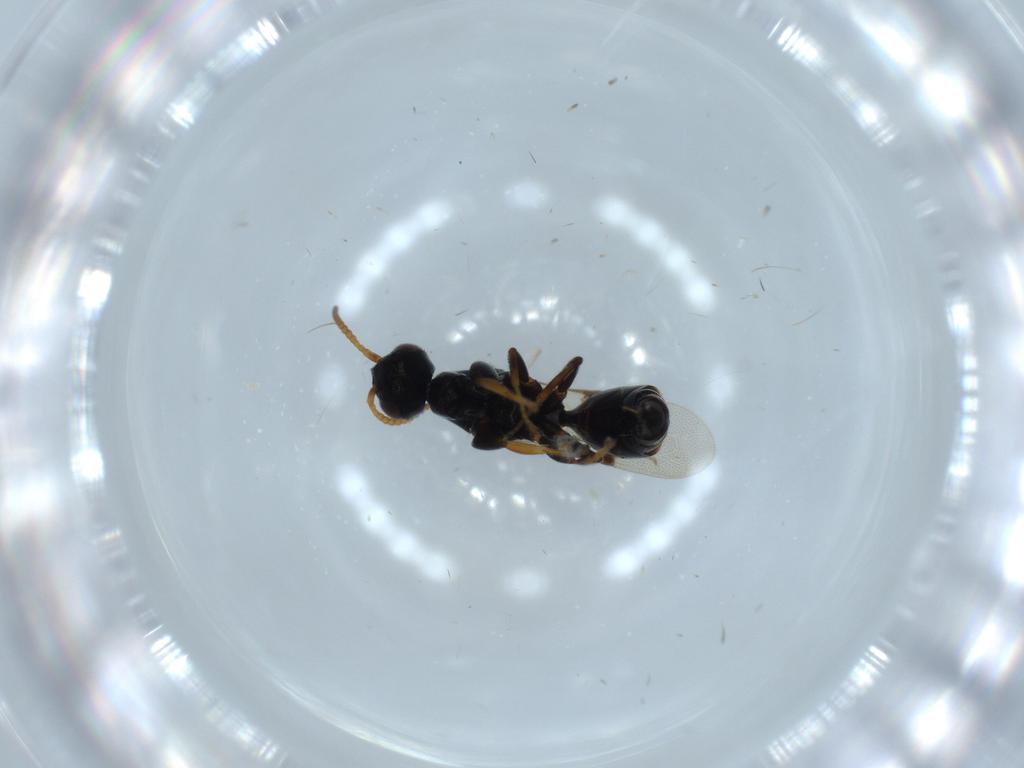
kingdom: Animalia
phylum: Arthropoda
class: Insecta
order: Hymenoptera
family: Bethylidae
